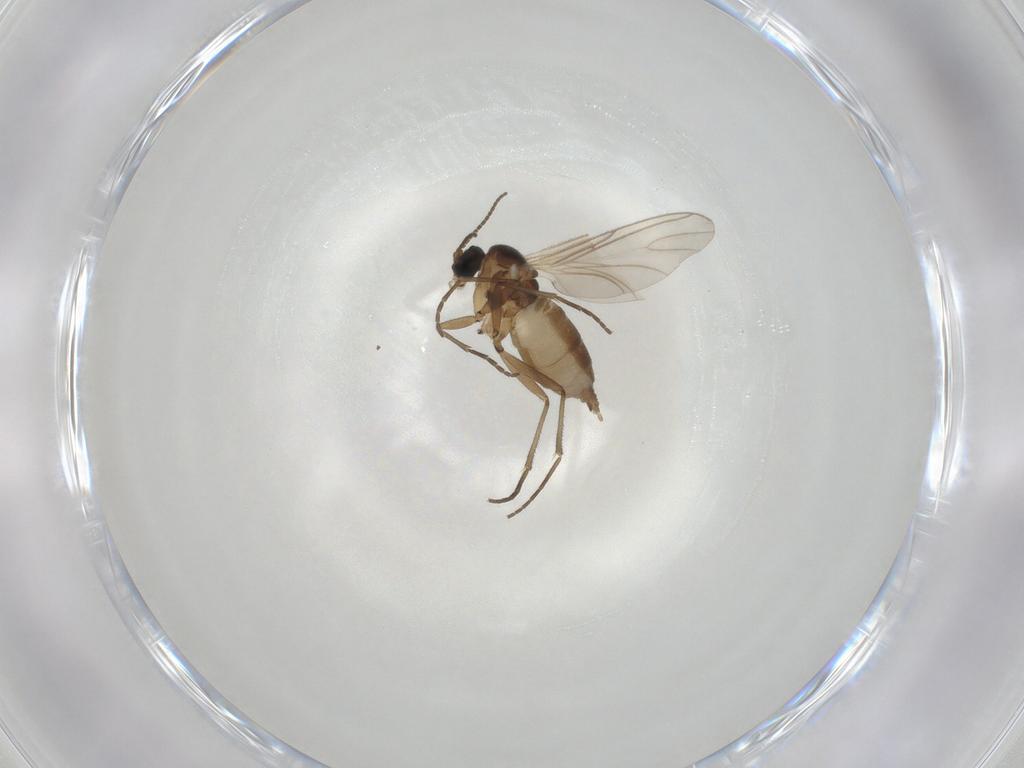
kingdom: Animalia
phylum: Arthropoda
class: Insecta
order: Diptera
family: Sciaridae
